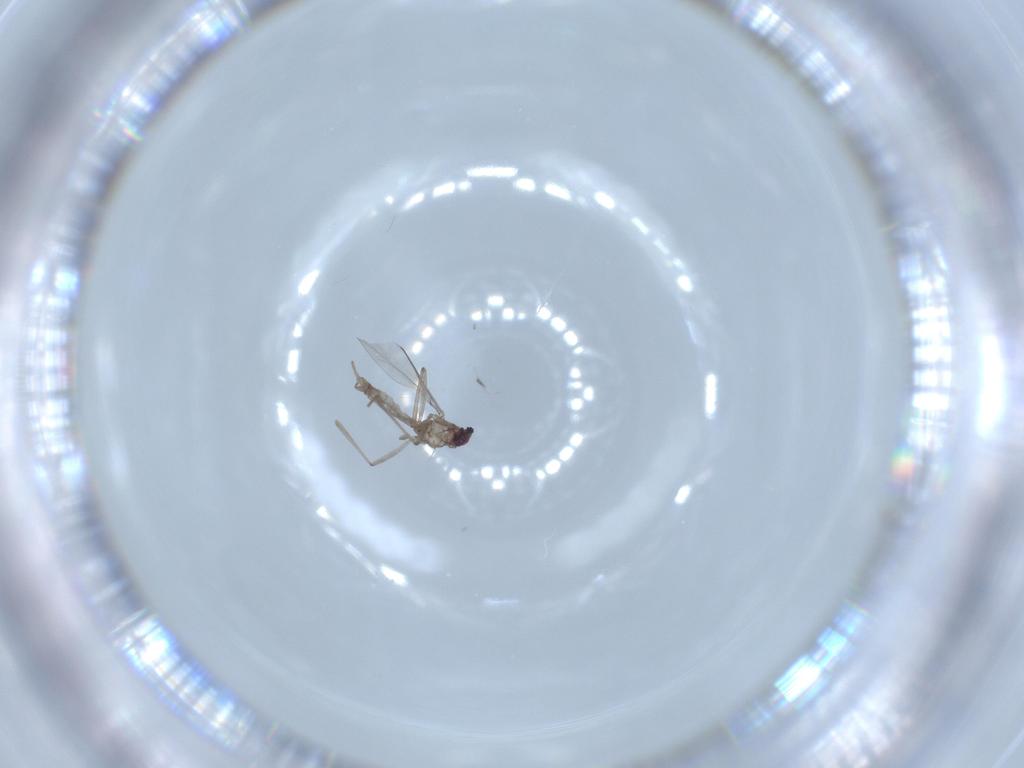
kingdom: Animalia
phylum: Arthropoda
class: Insecta
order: Diptera
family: Cecidomyiidae
